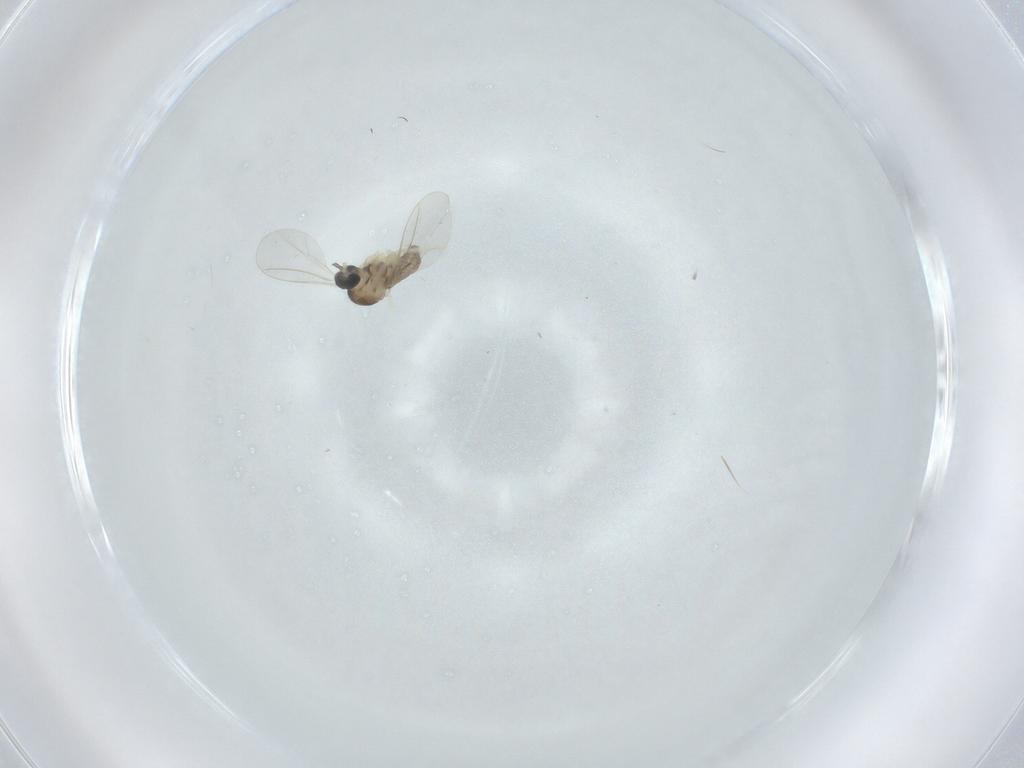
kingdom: Animalia
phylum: Arthropoda
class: Insecta
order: Diptera
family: Cecidomyiidae
